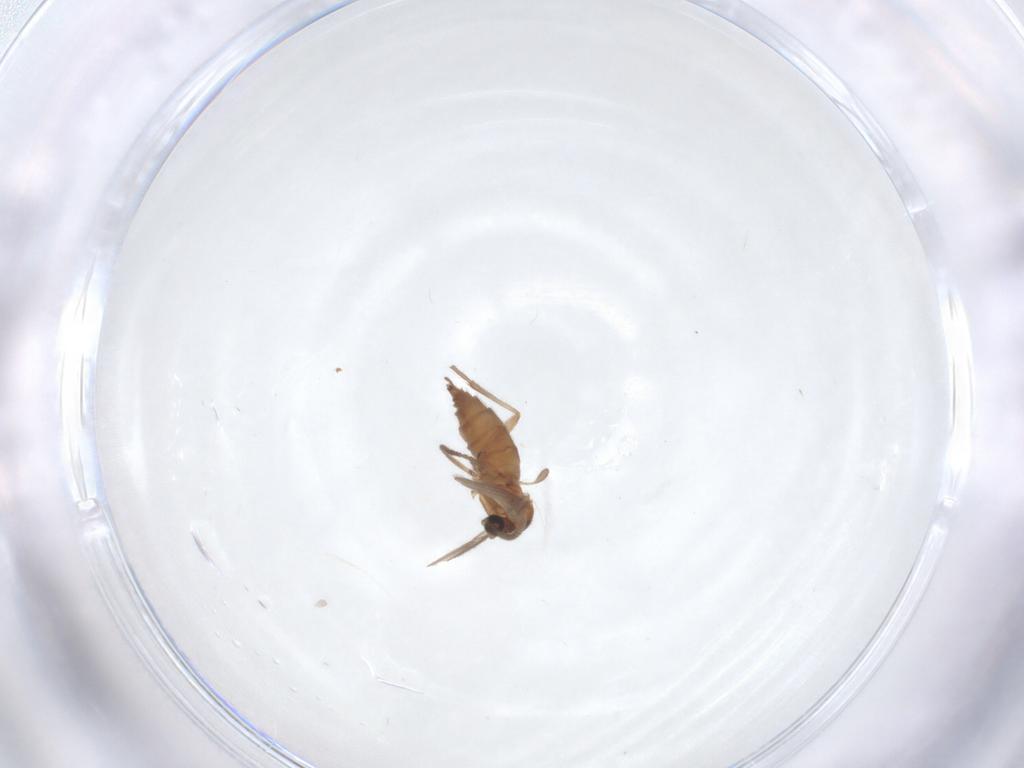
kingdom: Animalia
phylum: Arthropoda
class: Insecta
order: Diptera
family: Sciaridae
